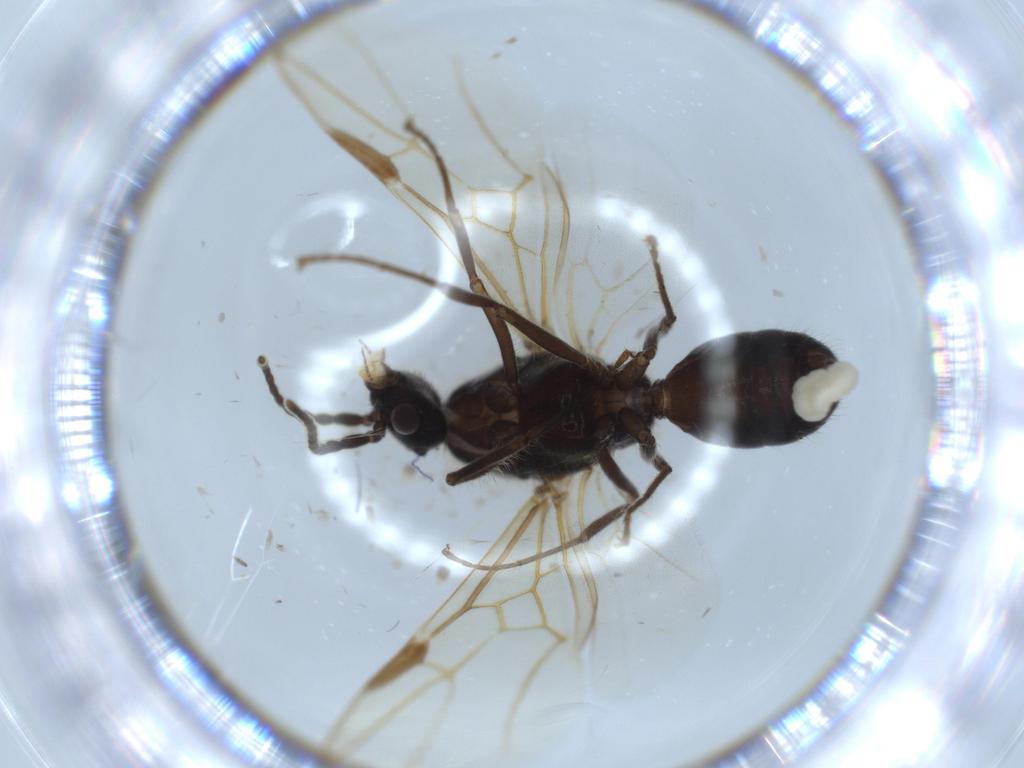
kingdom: Animalia
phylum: Arthropoda
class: Insecta
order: Hymenoptera
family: Formicidae
